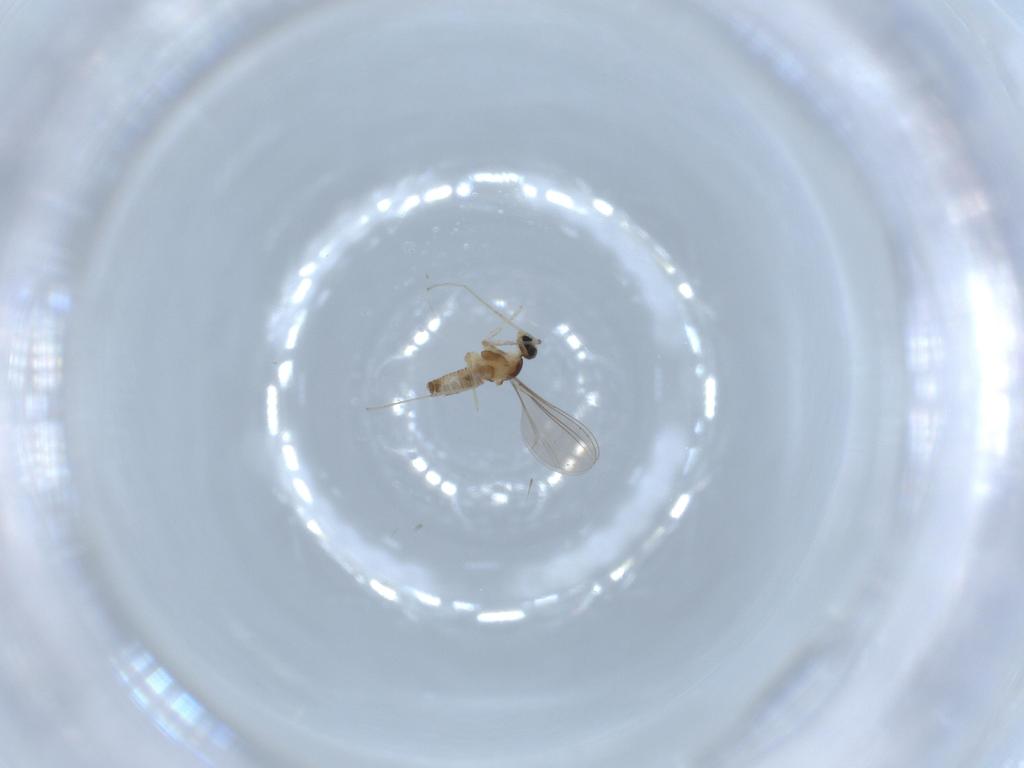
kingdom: Animalia
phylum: Arthropoda
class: Insecta
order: Diptera
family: Cecidomyiidae
